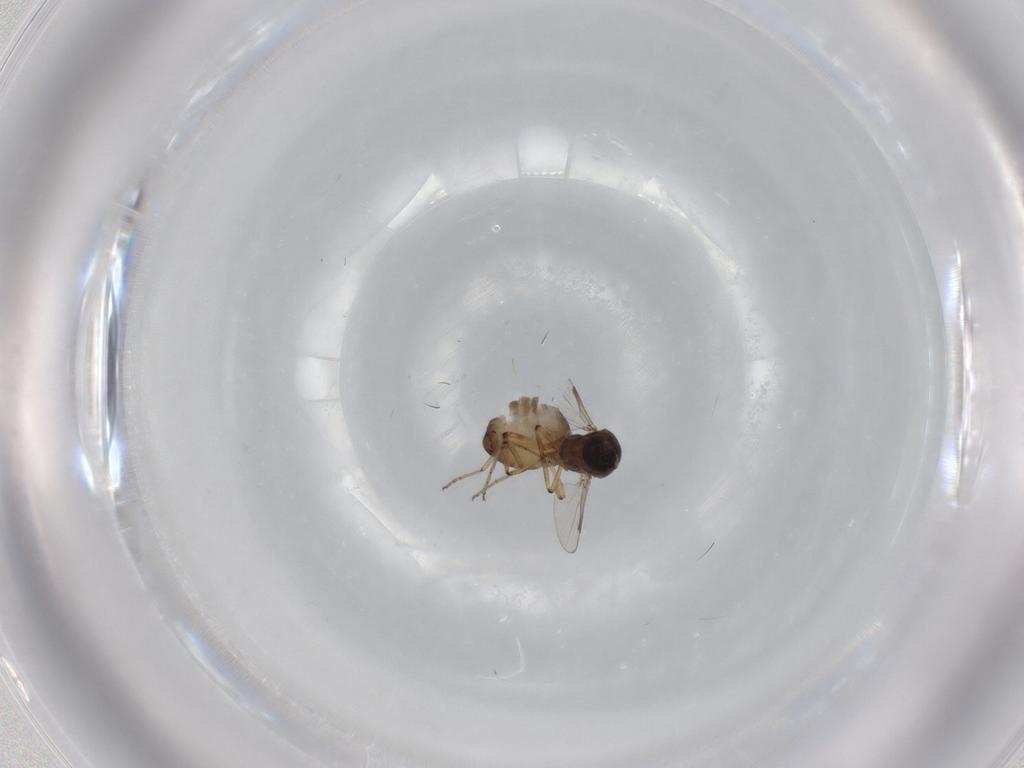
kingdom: Animalia
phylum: Arthropoda
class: Insecta
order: Diptera
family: Ceratopogonidae
